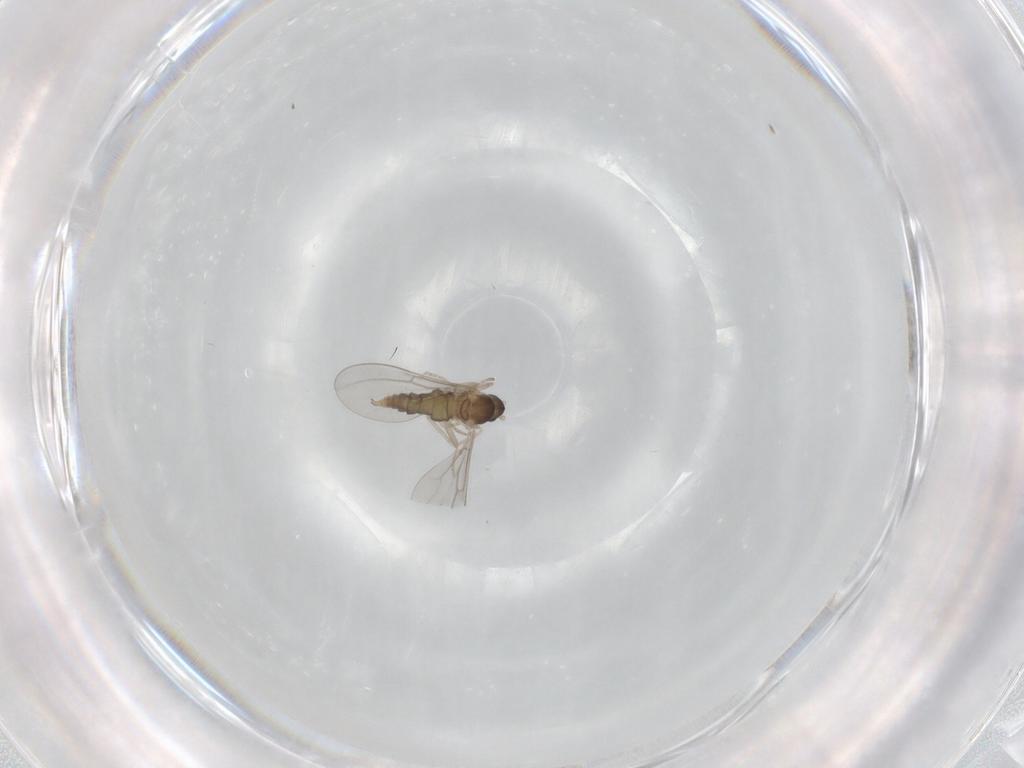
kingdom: Animalia
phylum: Arthropoda
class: Insecta
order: Diptera
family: Cecidomyiidae
